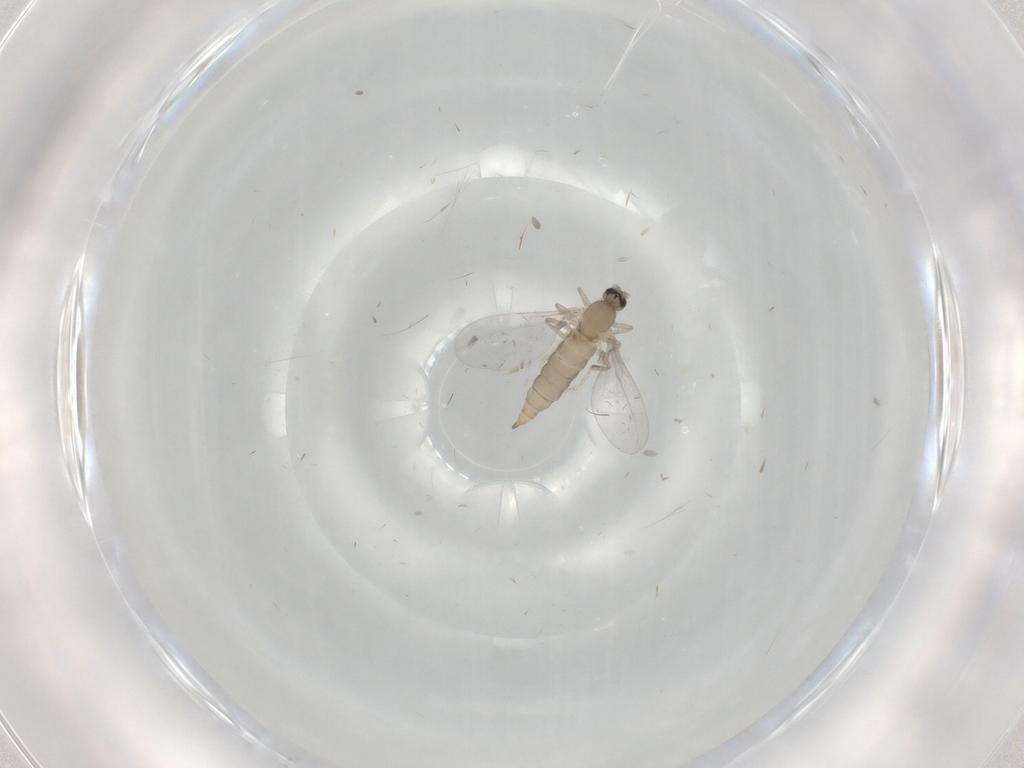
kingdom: Animalia
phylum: Arthropoda
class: Insecta
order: Diptera
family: Cecidomyiidae
